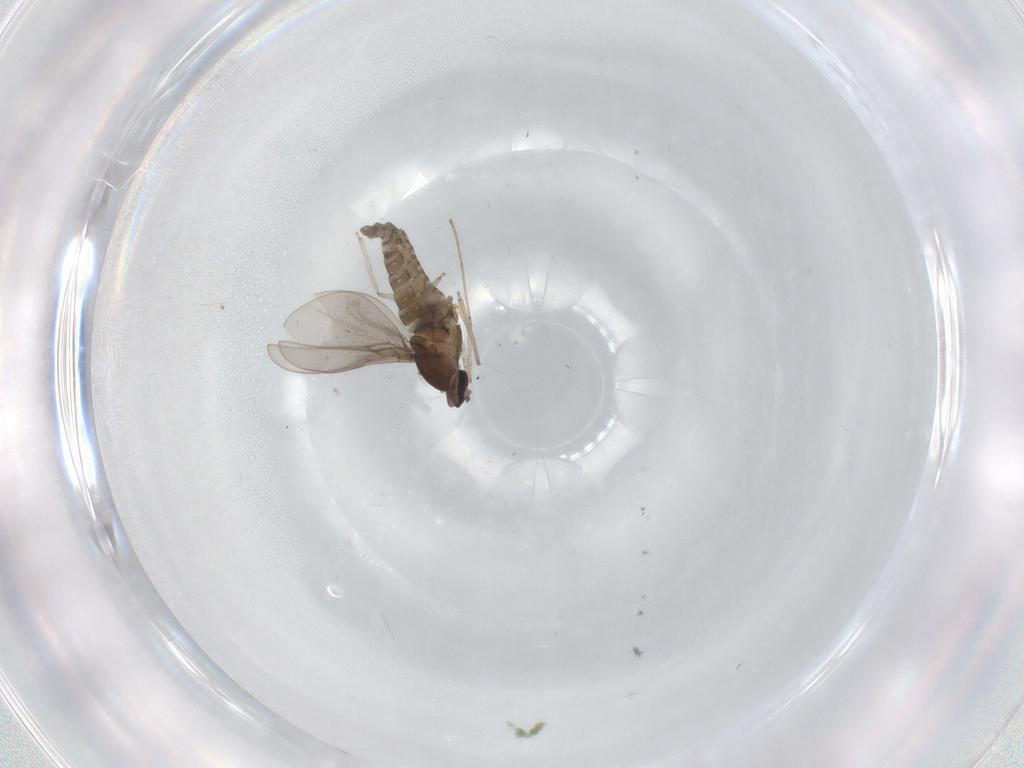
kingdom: Animalia
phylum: Arthropoda
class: Insecta
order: Diptera
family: Cecidomyiidae
